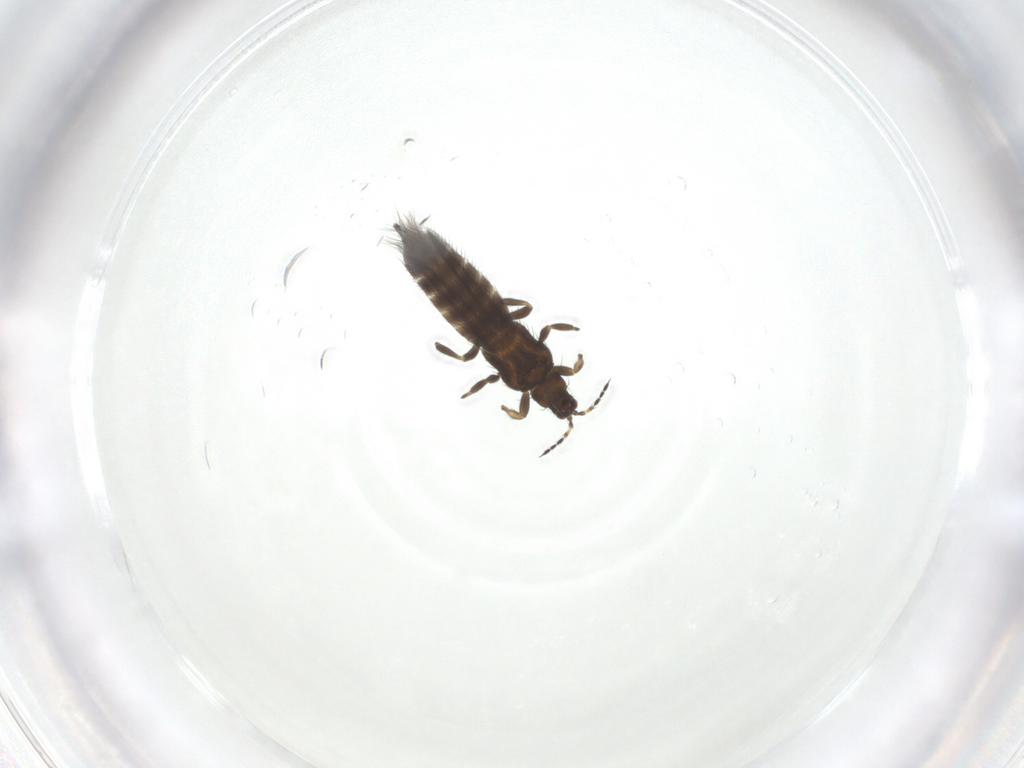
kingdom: Animalia
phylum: Arthropoda
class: Insecta
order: Thysanoptera
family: Thripidae
